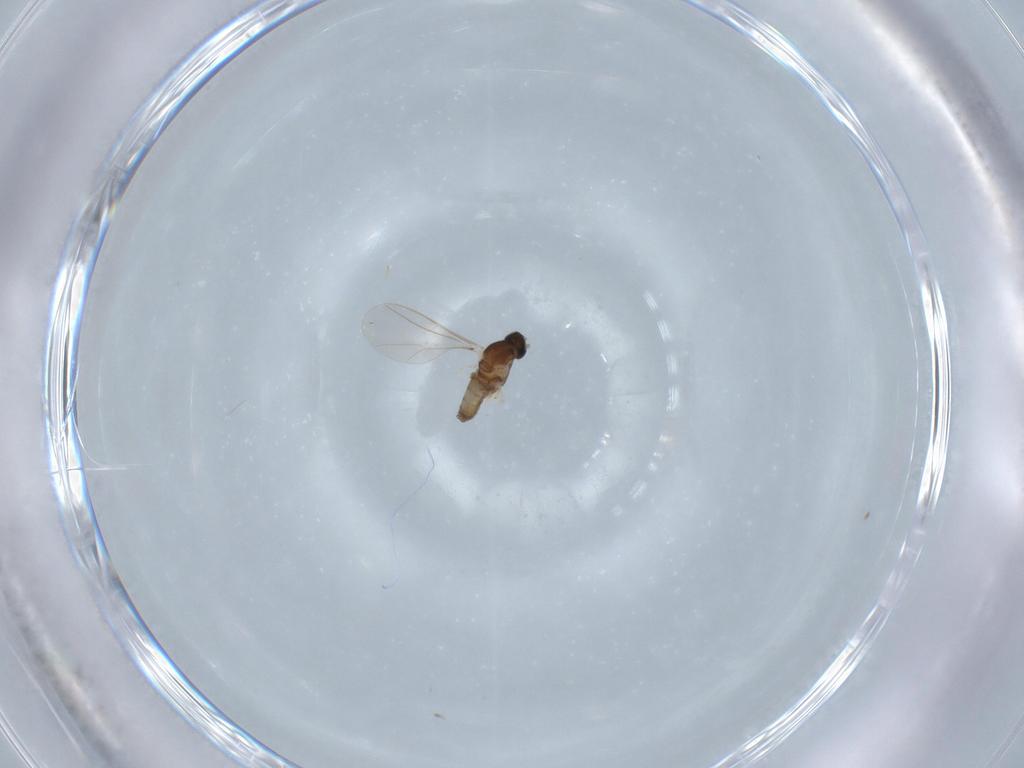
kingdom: Animalia
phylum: Arthropoda
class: Insecta
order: Diptera
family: Cecidomyiidae
